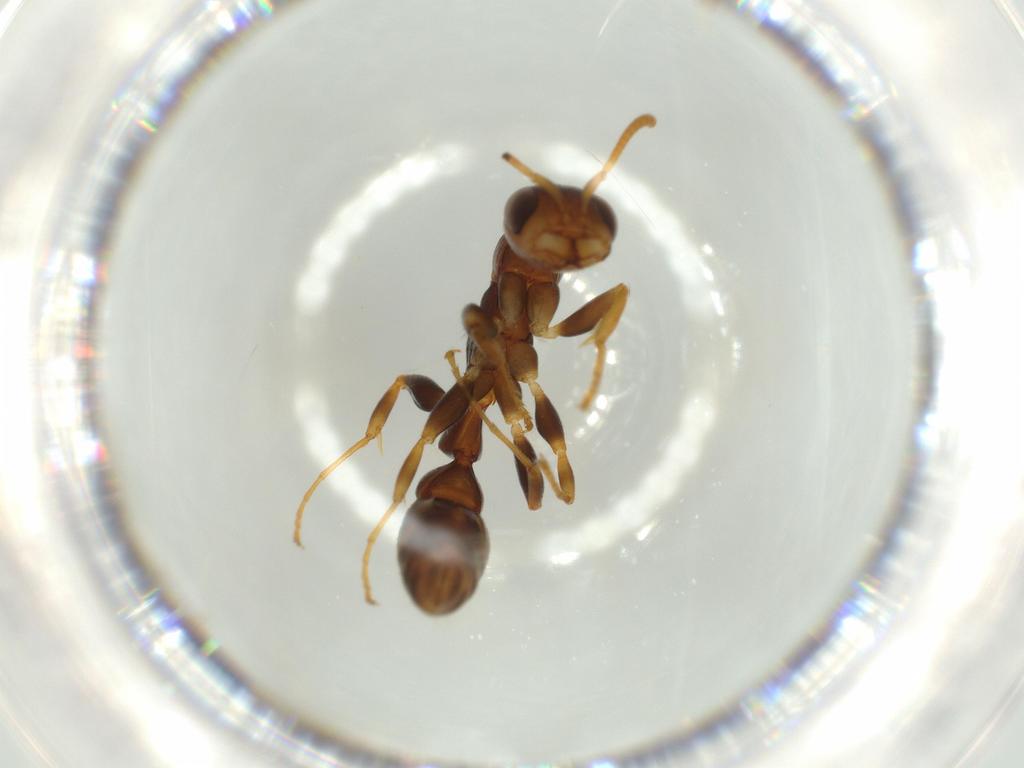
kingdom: Animalia
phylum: Arthropoda
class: Insecta
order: Hymenoptera
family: Formicidae
